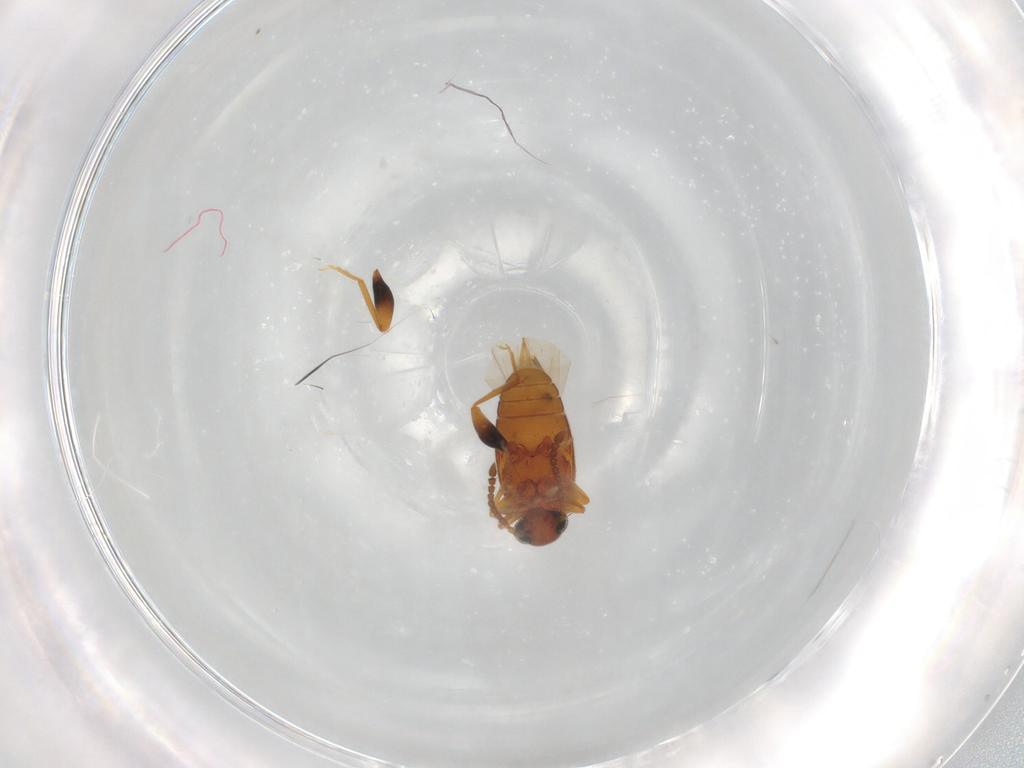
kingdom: Animalia
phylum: Arthropoda
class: Insecta
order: Coleoptera
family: Aderidae
